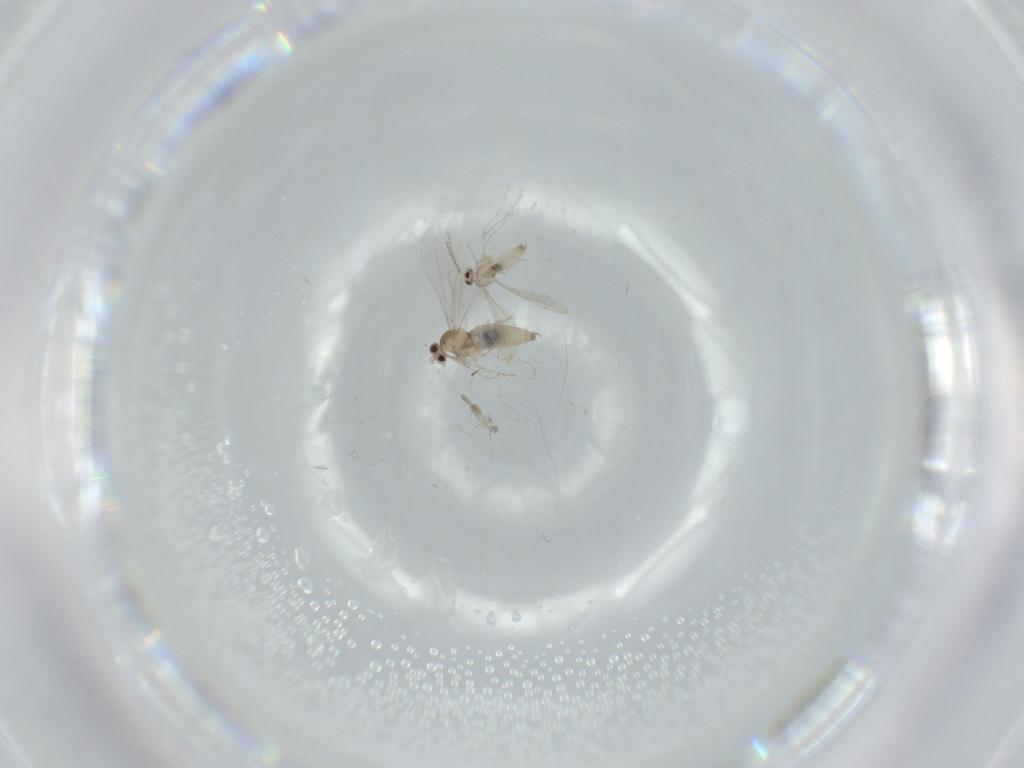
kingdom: Animalia
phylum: Arthropoda
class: Insecta
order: Diptera
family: Cecidomyiidae
